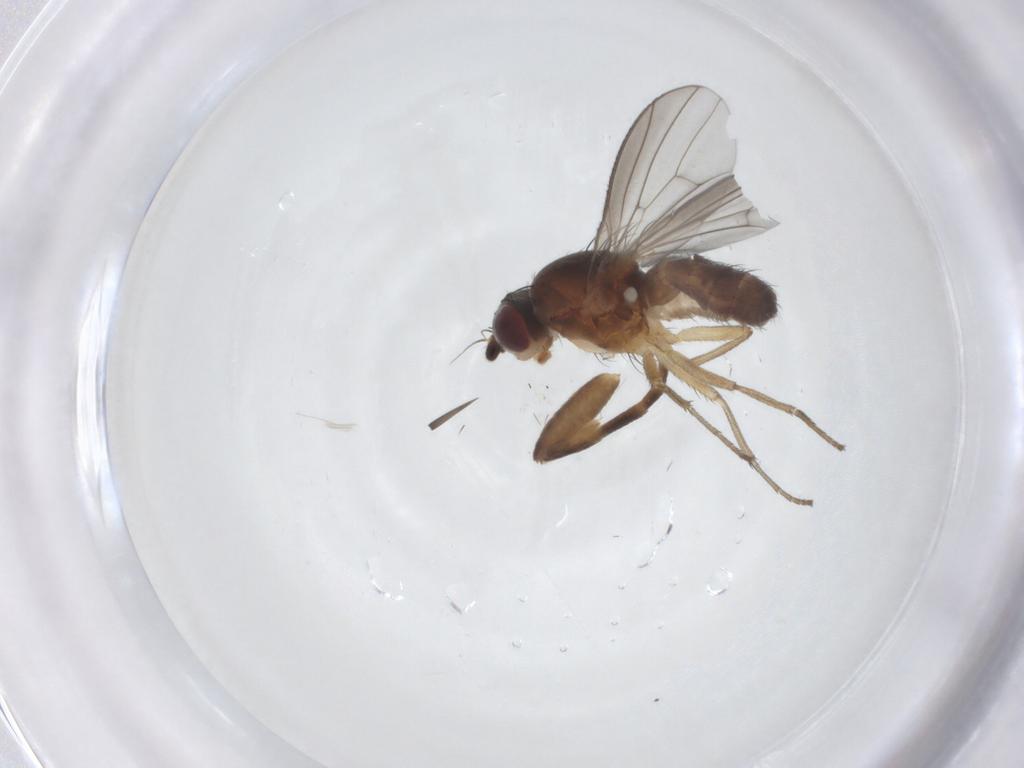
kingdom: Animalia
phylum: Arthropoda
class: Insecta
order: Diptera
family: Heleomyzidae
